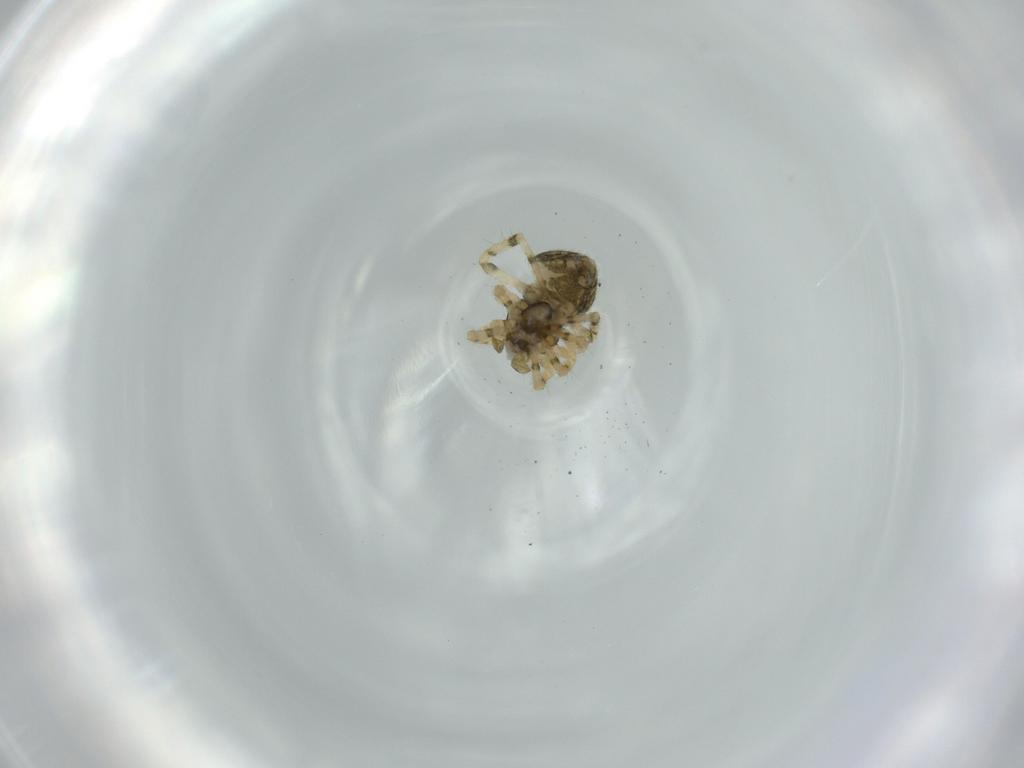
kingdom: Animalia
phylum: Arthropoda
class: Arachnida
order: Araneae
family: Theridiidae
